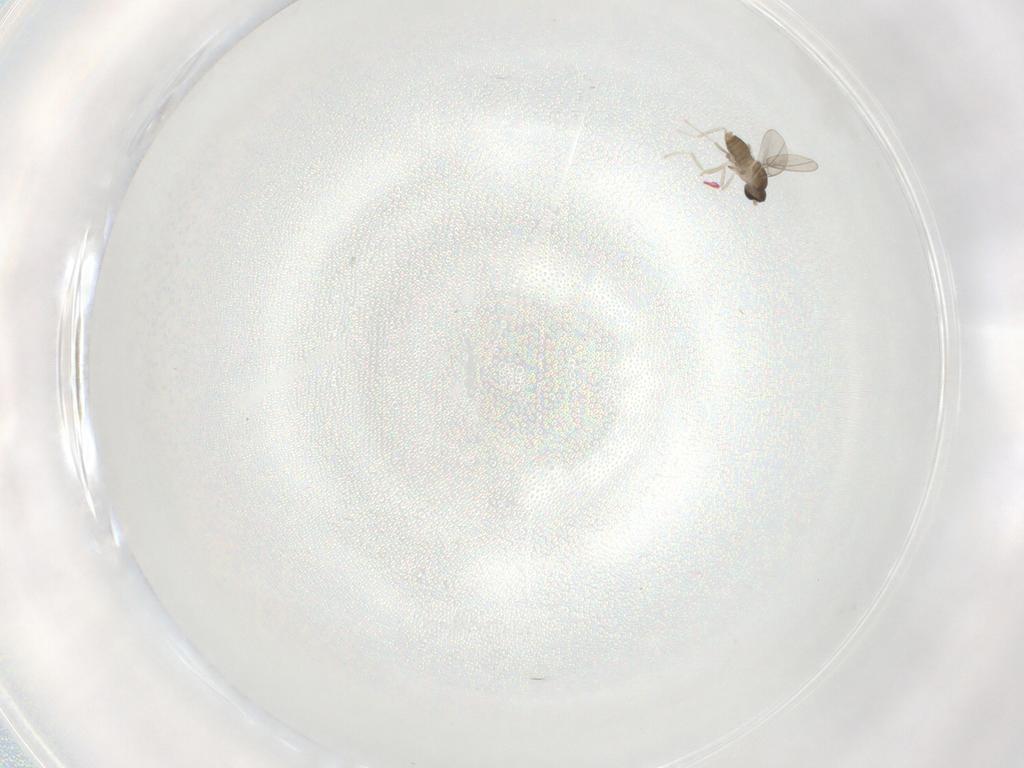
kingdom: Animalia
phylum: Arthropoda
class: Insecta
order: Diptera
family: Cecidomyiidae
